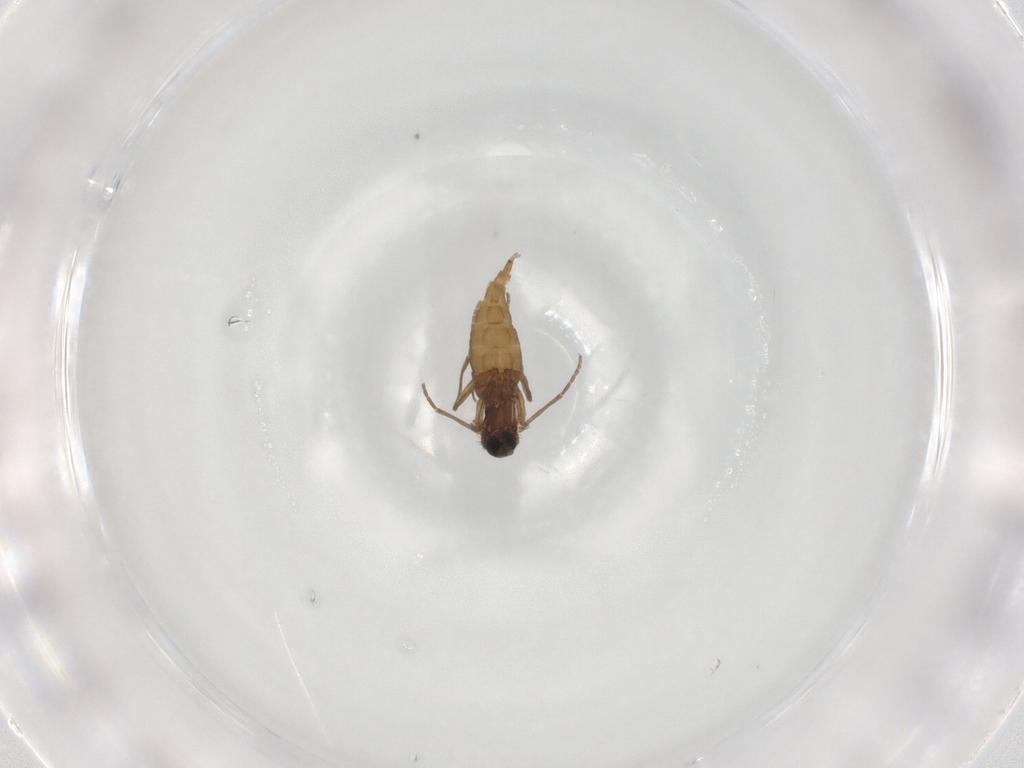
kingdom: Animalia
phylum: Arthropoda
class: Insecta
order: Diptera
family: Sciaridae
